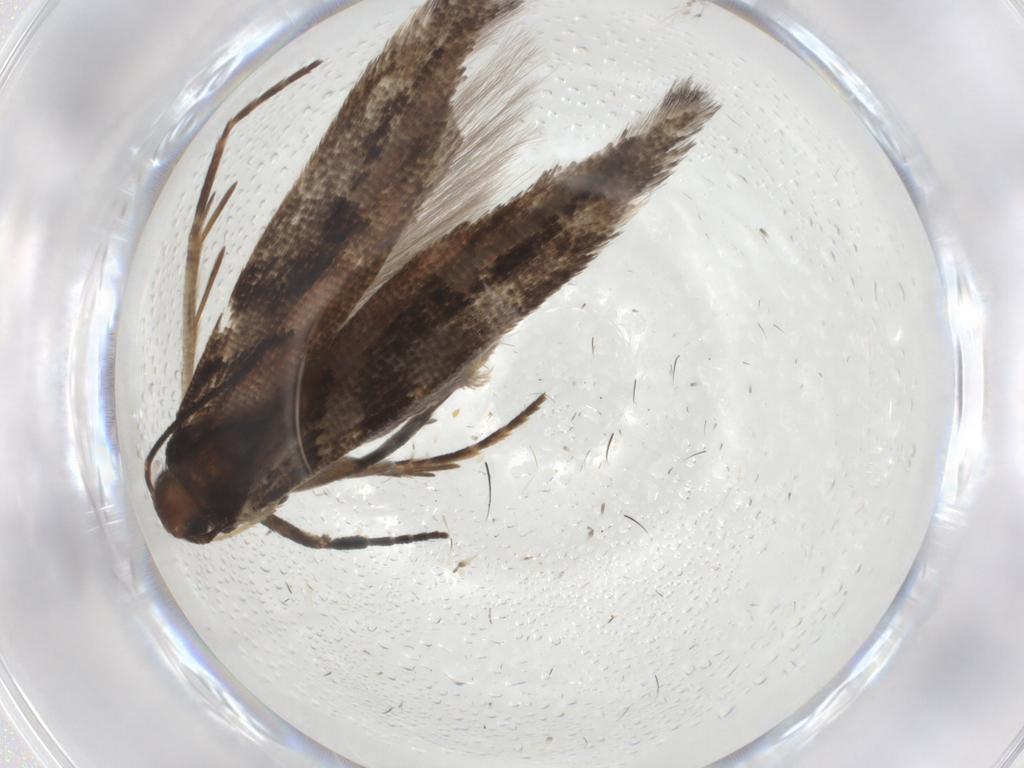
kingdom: Animalia
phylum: Arthropoda
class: Insecta
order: Lepidoptera
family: Gelechiidae
